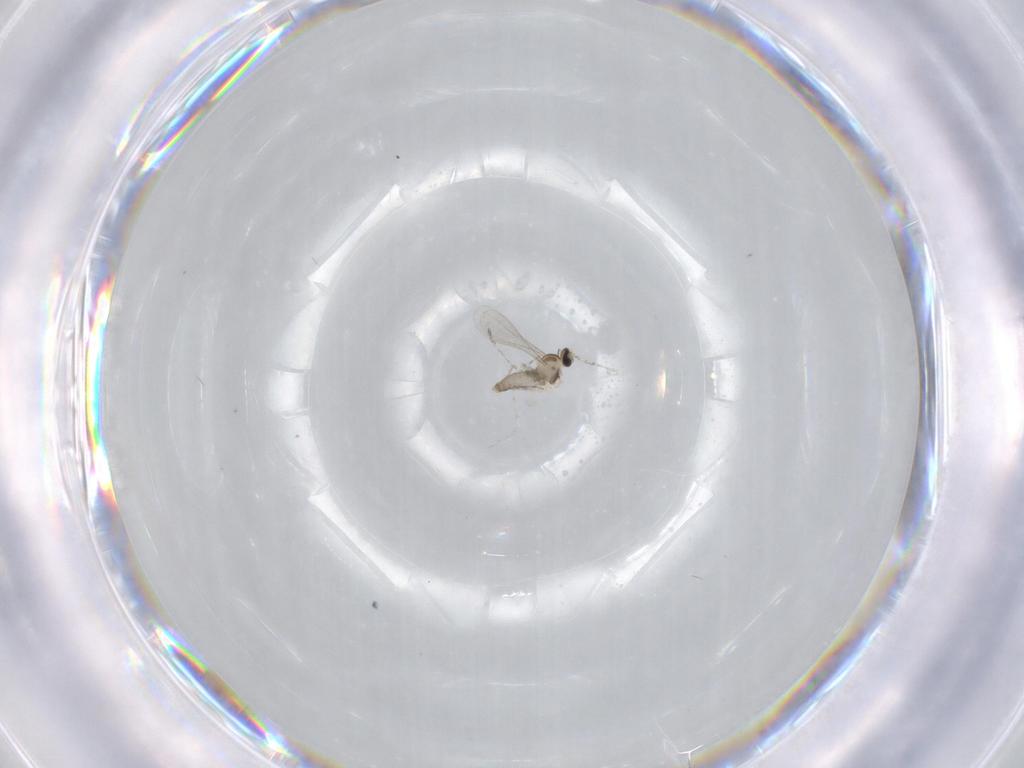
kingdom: Animalia
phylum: Arthropoda
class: Insecta
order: Diptera
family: Cecidomyiidae
